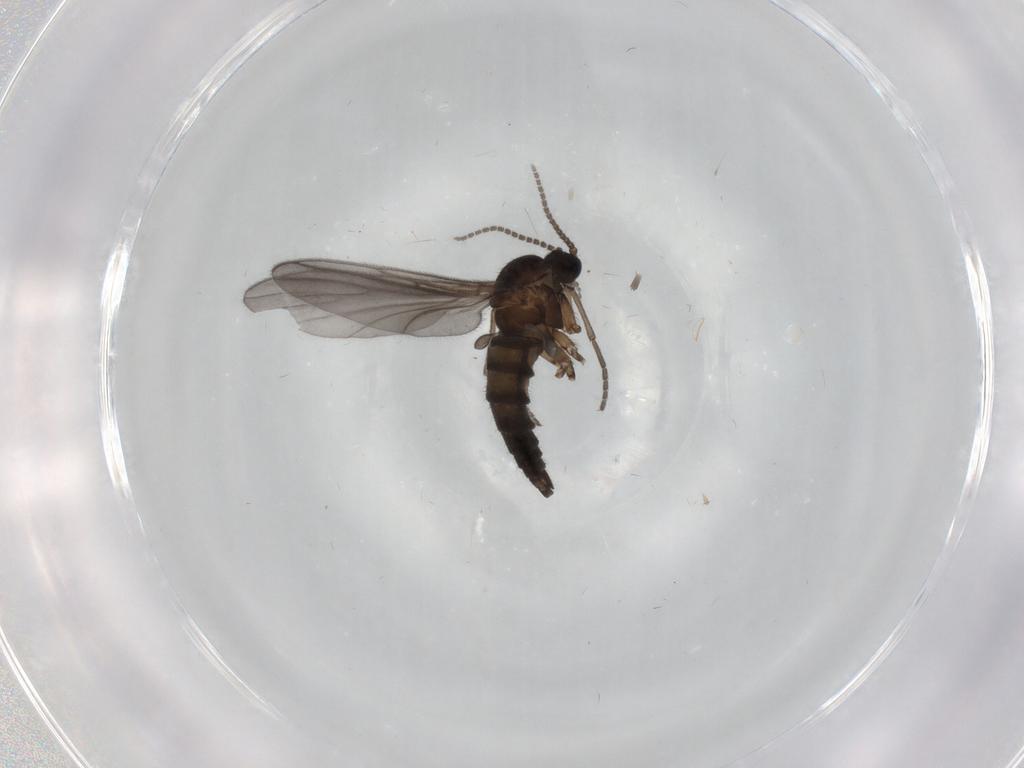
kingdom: Animalia
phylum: Arthropoda
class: Insecta
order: Diptera
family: Sciaridae
